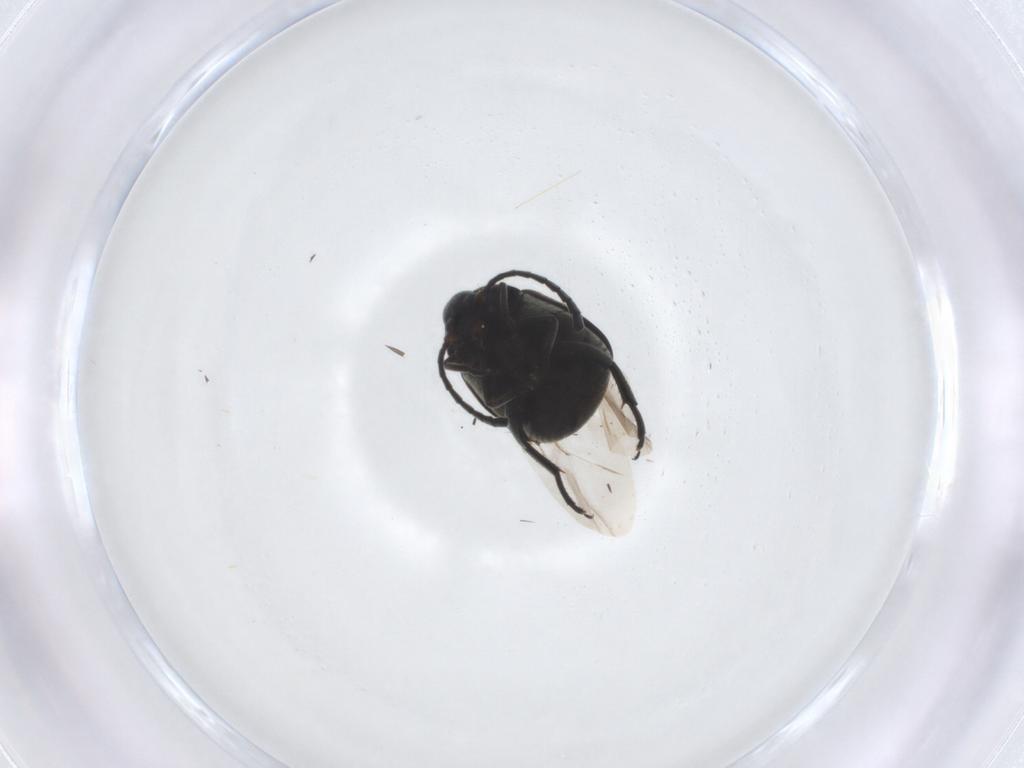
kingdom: Animalia
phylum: Arthropoda
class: Insecta
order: Coleoptera
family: Chrysomelidae
